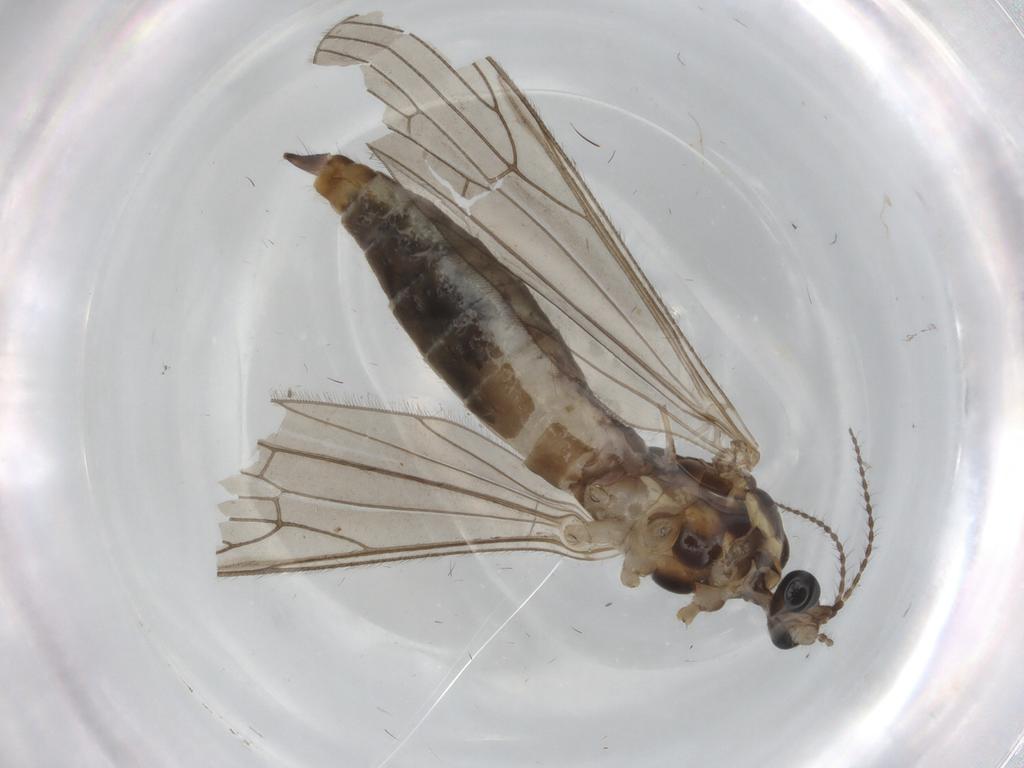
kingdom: Animalia
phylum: Arthropoda
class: Insecta
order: Diptera
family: Limoniidae
